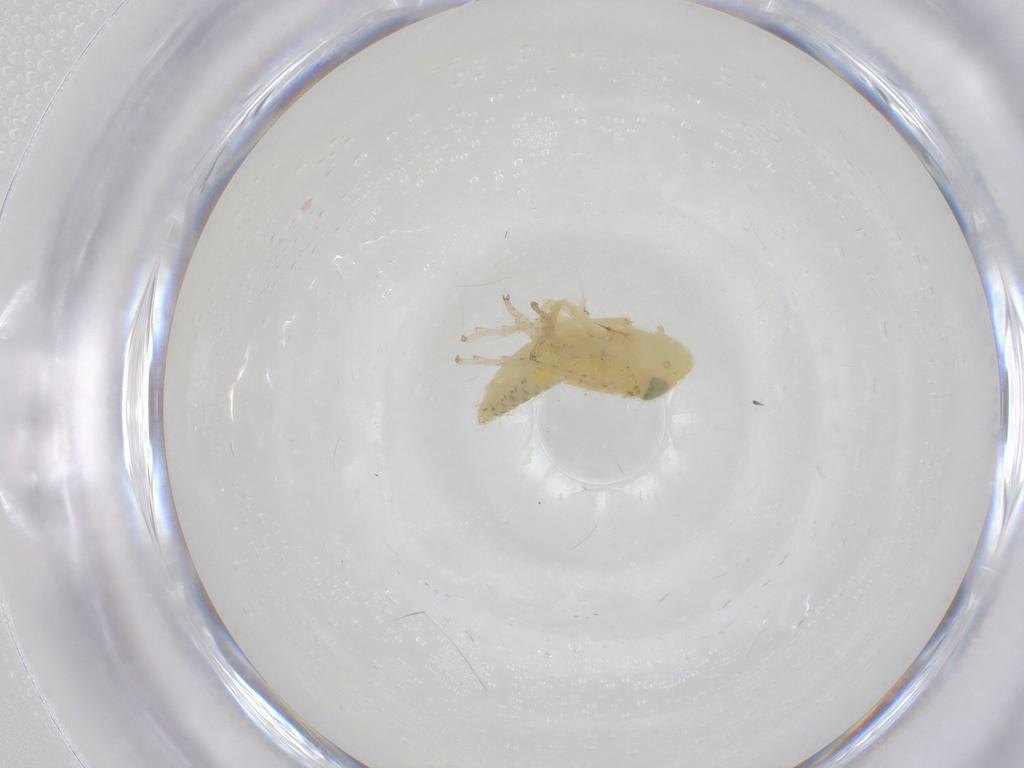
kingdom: Animalia
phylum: Arthropoda
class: Insecta
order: Hemiptera
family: Cicadellidae
